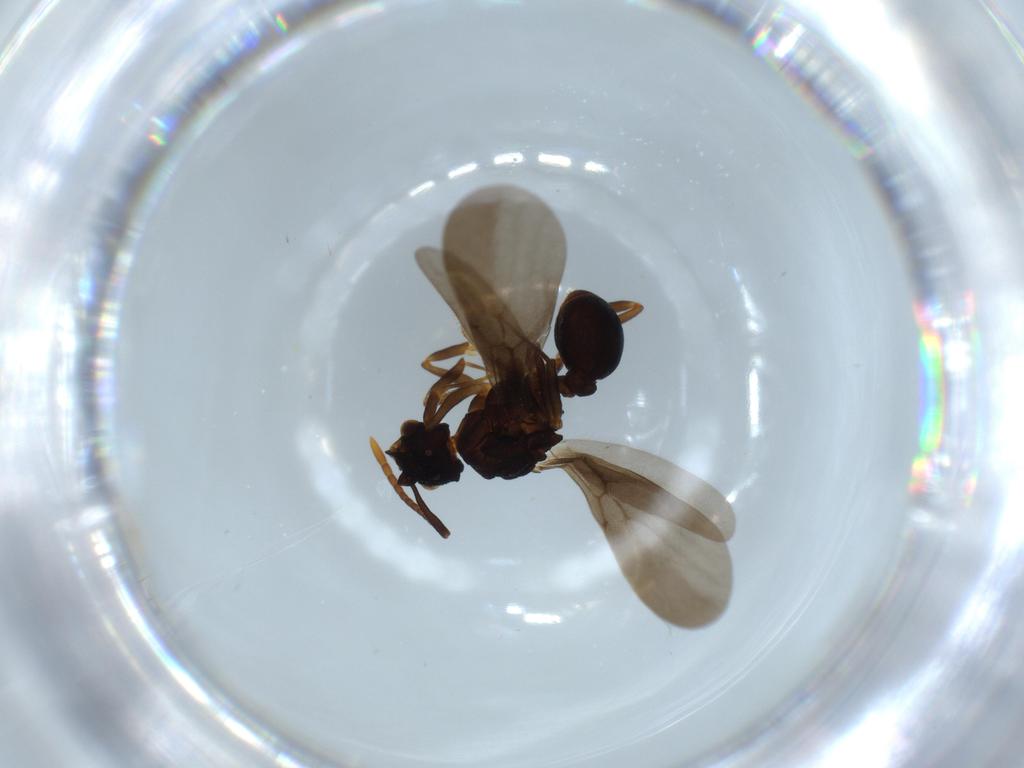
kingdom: Animalia
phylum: Arthropoda
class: Insecta
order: Hymenoptera
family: Formicidae
